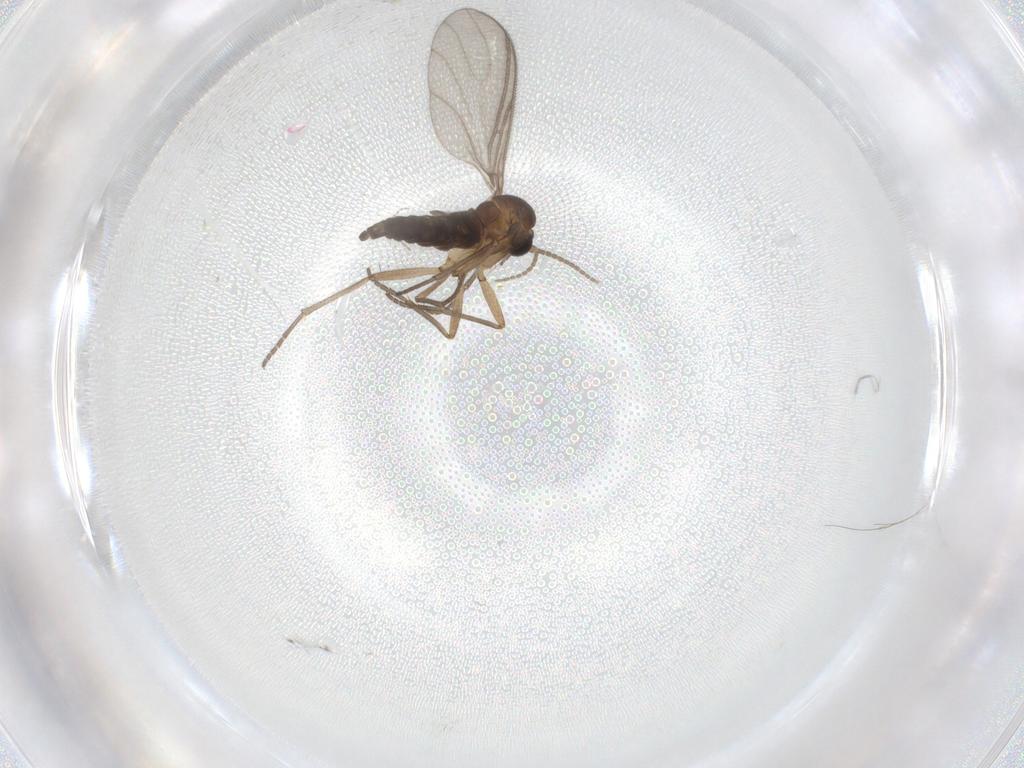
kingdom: Animalia
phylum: Arthropoda
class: Insecta
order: Diptera
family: Sciaridae
